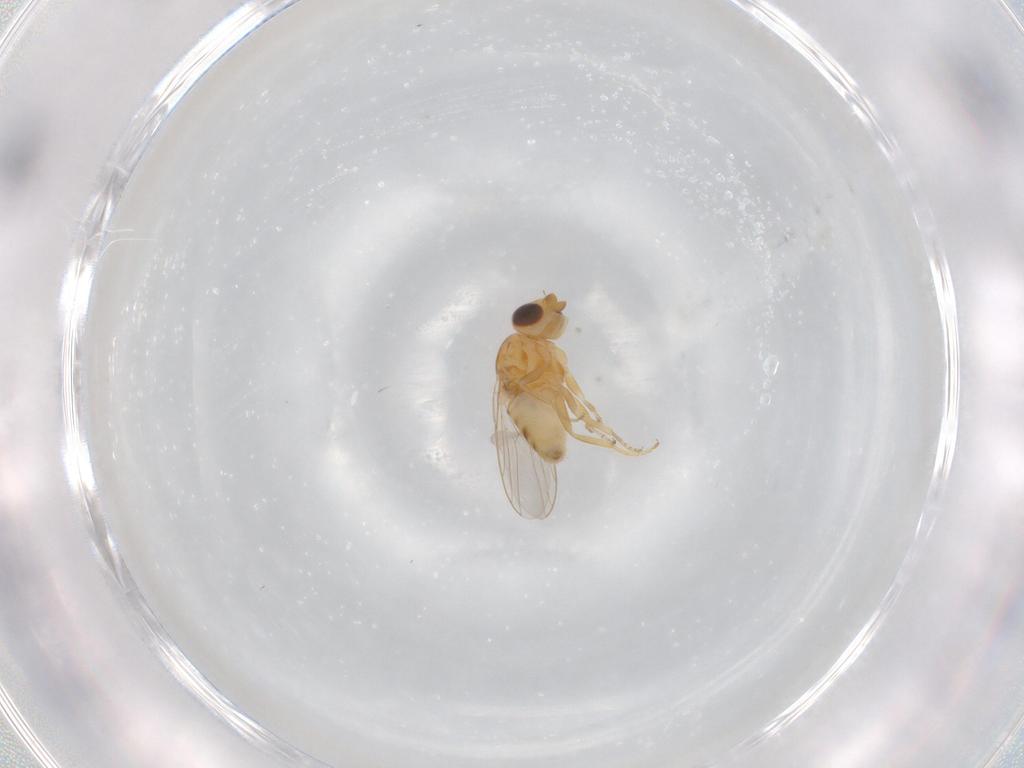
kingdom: Animalia
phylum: Arthropoda
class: Insecta
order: Diptera
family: Chloropidae
